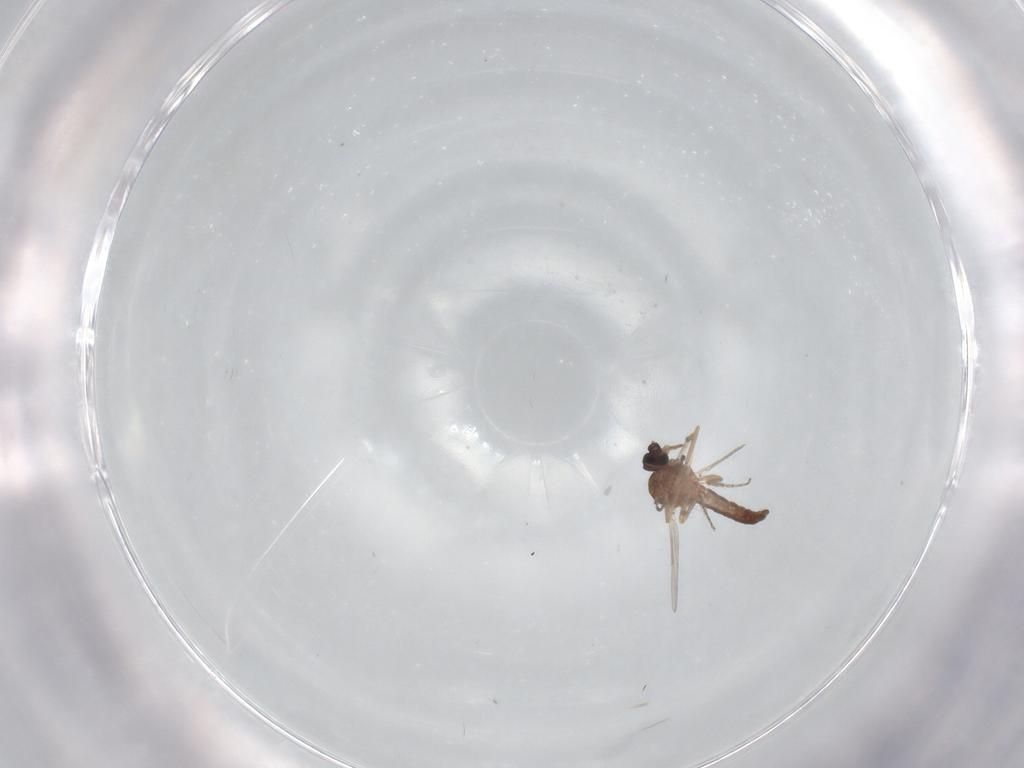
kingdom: Animalia
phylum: Arthropoda
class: Insecta
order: Diptera
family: Ceratopogonidae
